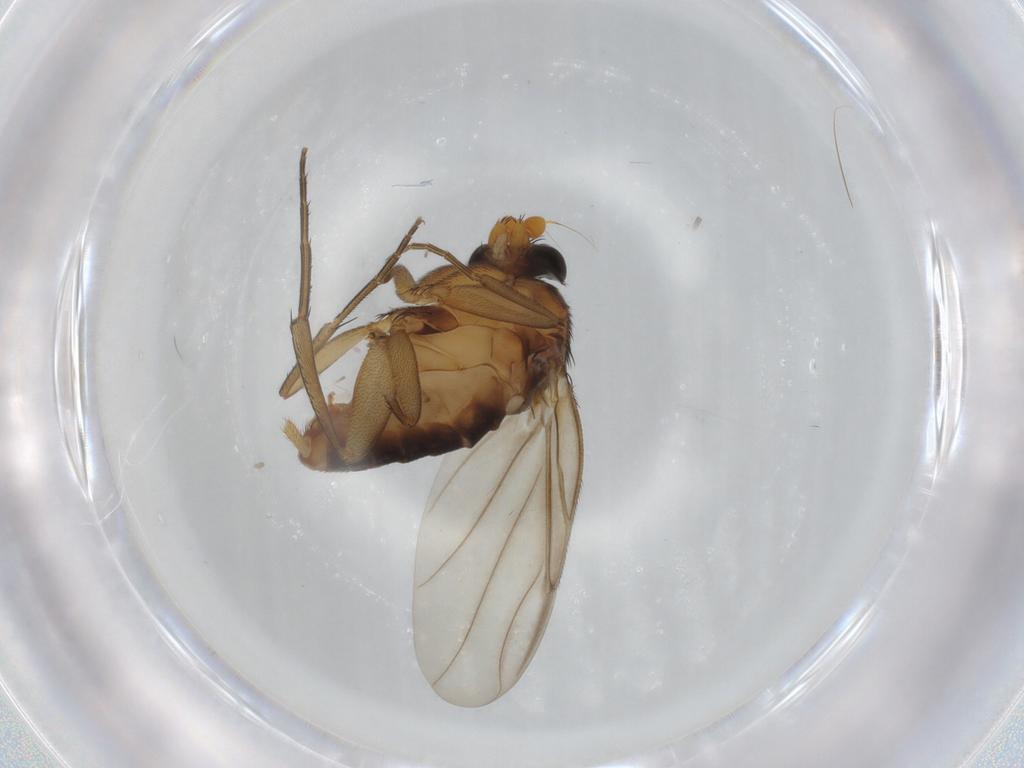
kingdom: Animalia
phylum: Arthropoda
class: Insecta
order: Diptera
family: Phoridae
